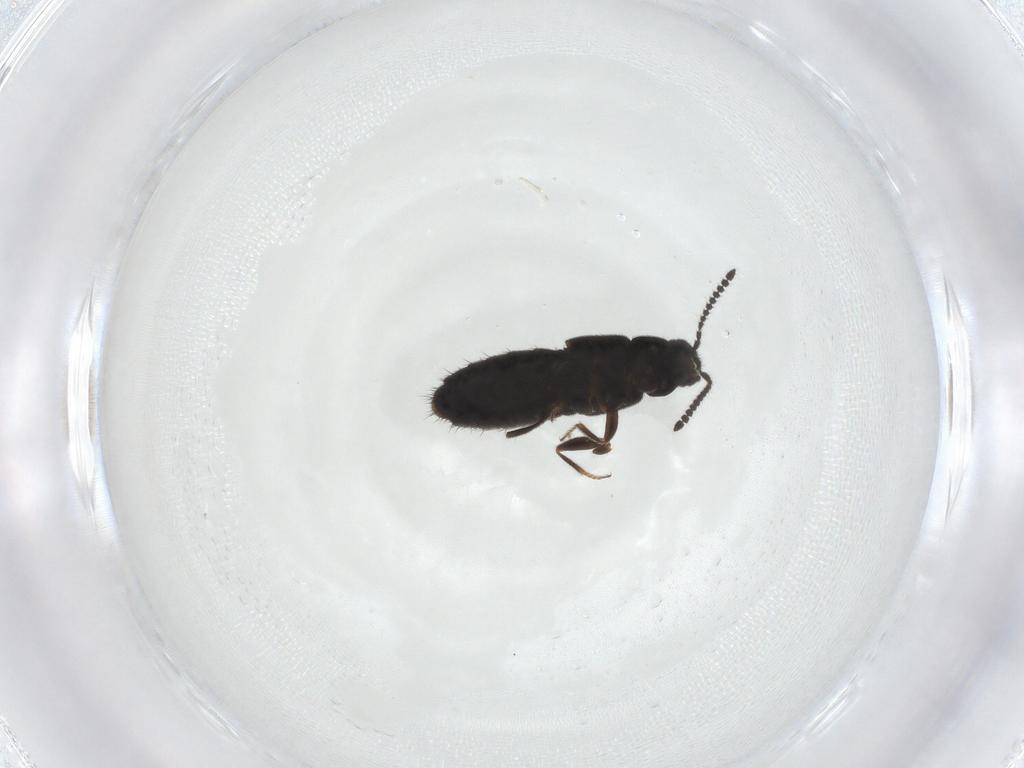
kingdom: Animalia
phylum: Arthropoda
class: Insecta
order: Coleoptera
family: Staphylinidae
